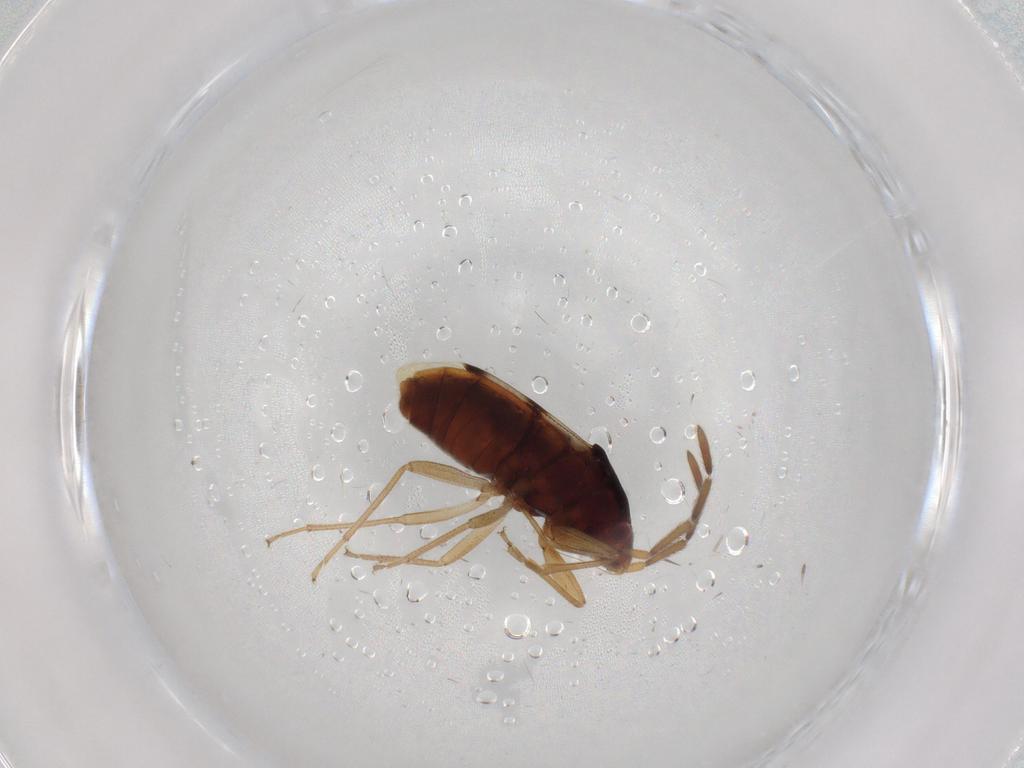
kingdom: Animalia
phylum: Arthropoda
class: Insecta
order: Hemiptera
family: Rhyparochromidae
